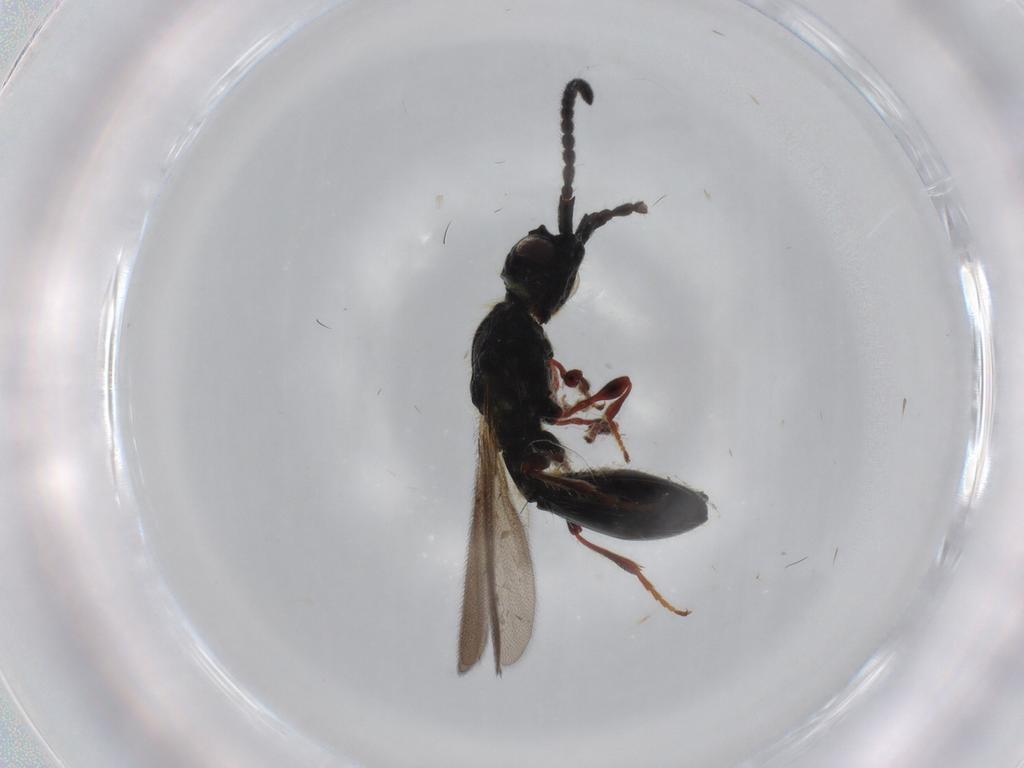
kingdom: Animalia
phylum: Arthropoda
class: Insecta
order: Hymenoptera
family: Diapriidae
